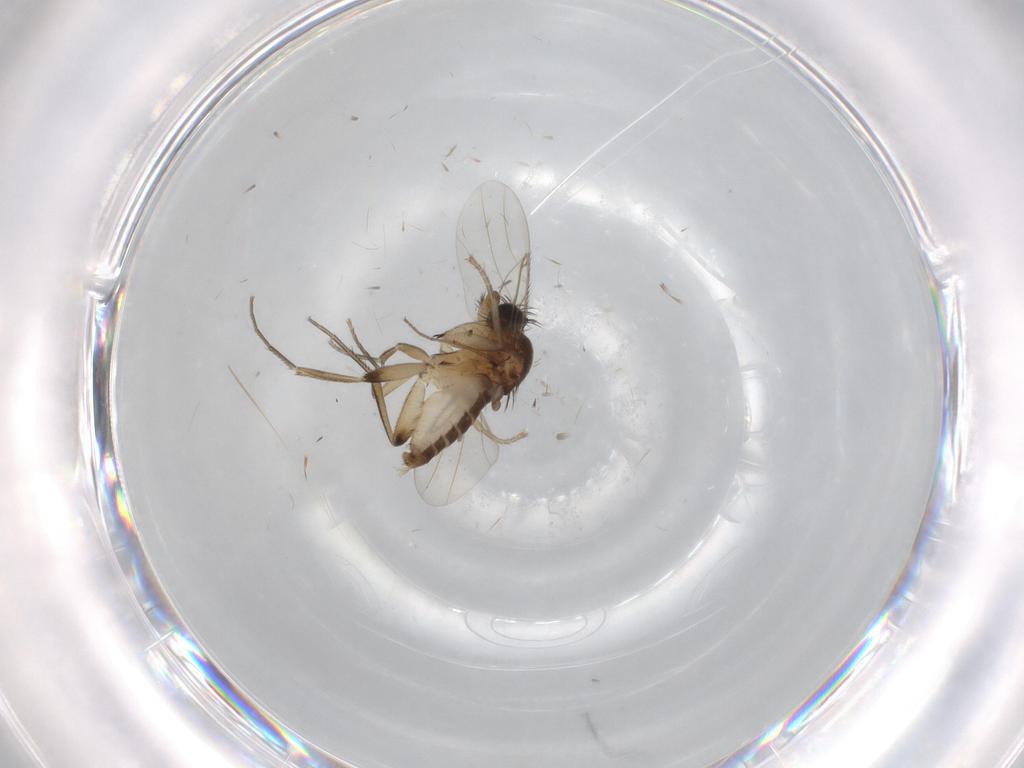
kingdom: Animalia
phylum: Arthropoda
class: Insecta
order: Diptera
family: Phoridae
